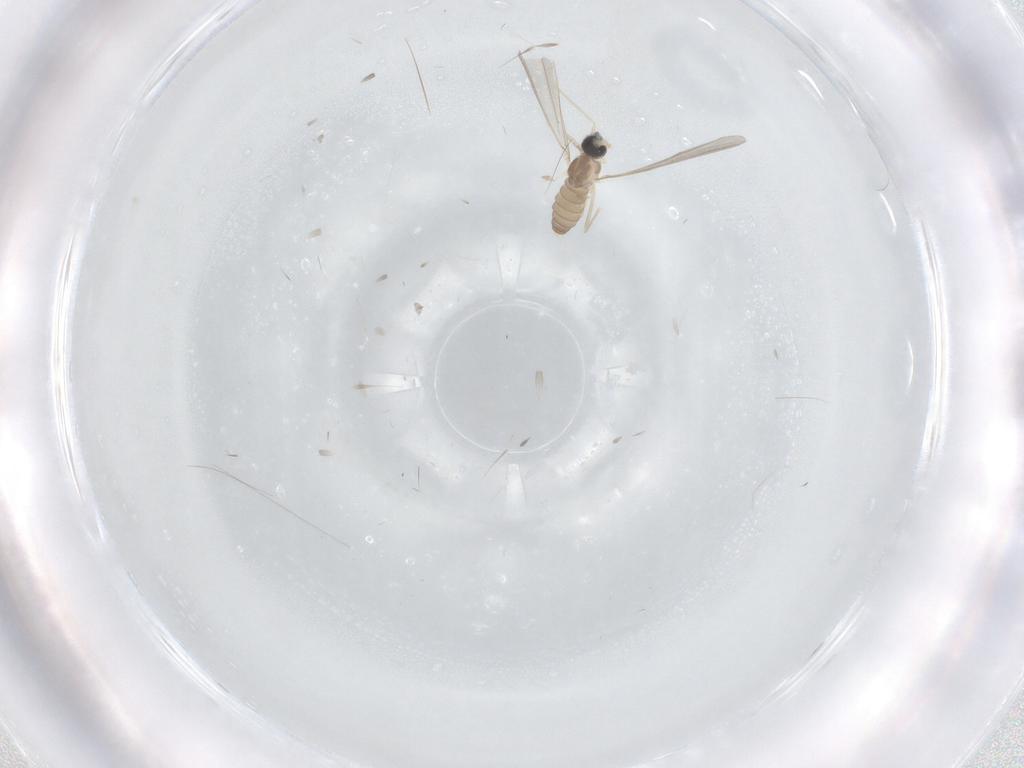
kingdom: Animalia
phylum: Arthropoda
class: Insecta
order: Diptera
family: Cecidomyiidae
